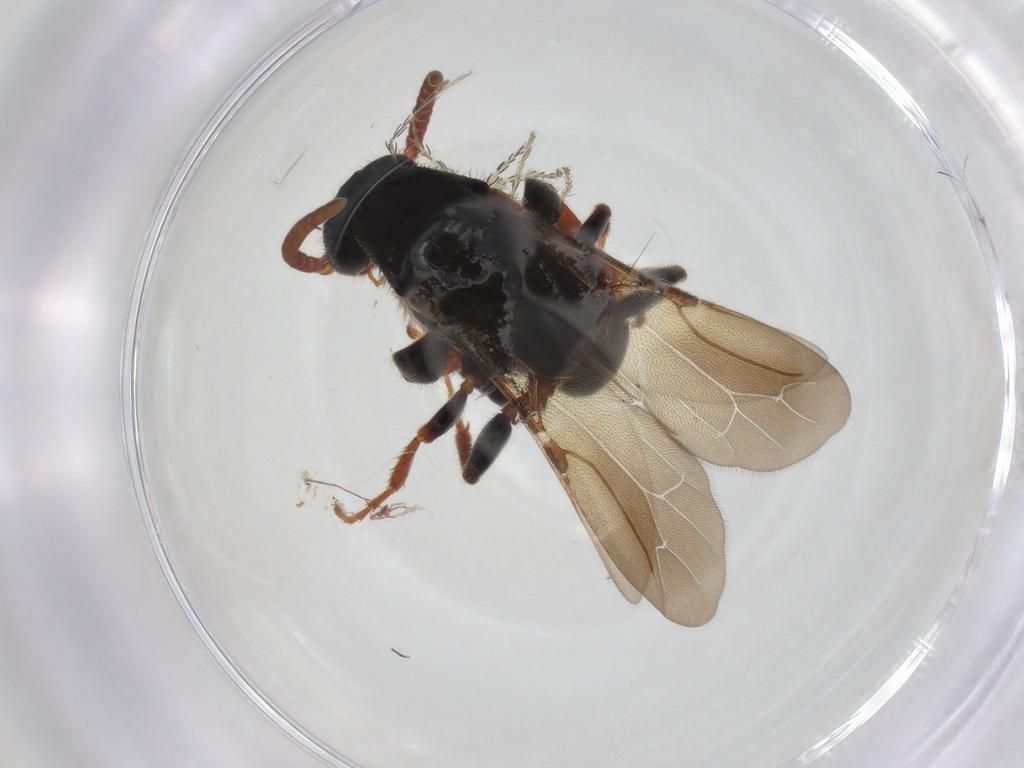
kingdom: Animalia
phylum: Arthropoda
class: Insecta
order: Hymenoptera
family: Bethylidae
